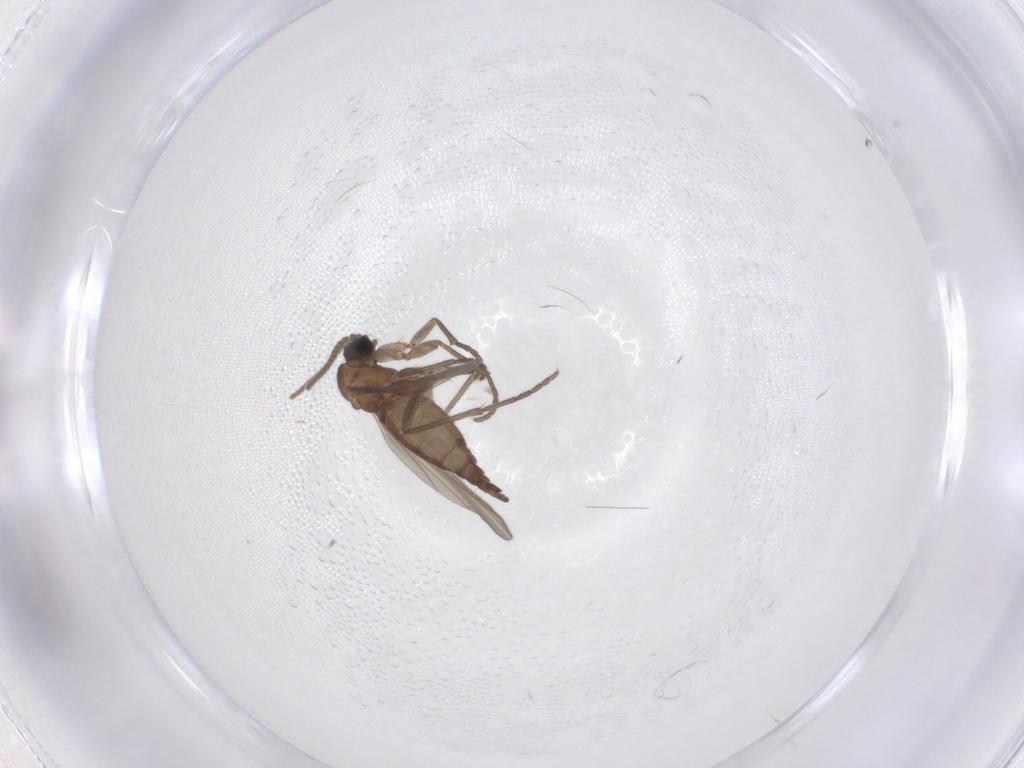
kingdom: Animalia
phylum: Arthropoda
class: Insecta
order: Diptera
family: Sciaridae
